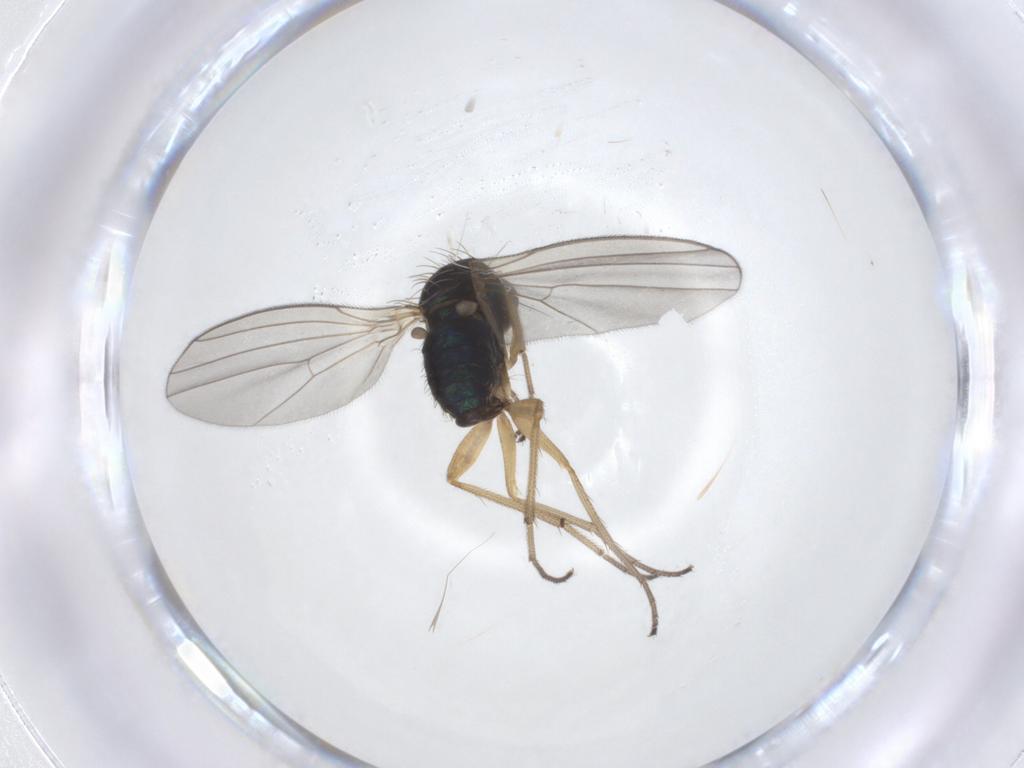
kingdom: Animalia
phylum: Arthropoda
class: Insecta
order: Diptera
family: Dolichopodidae
